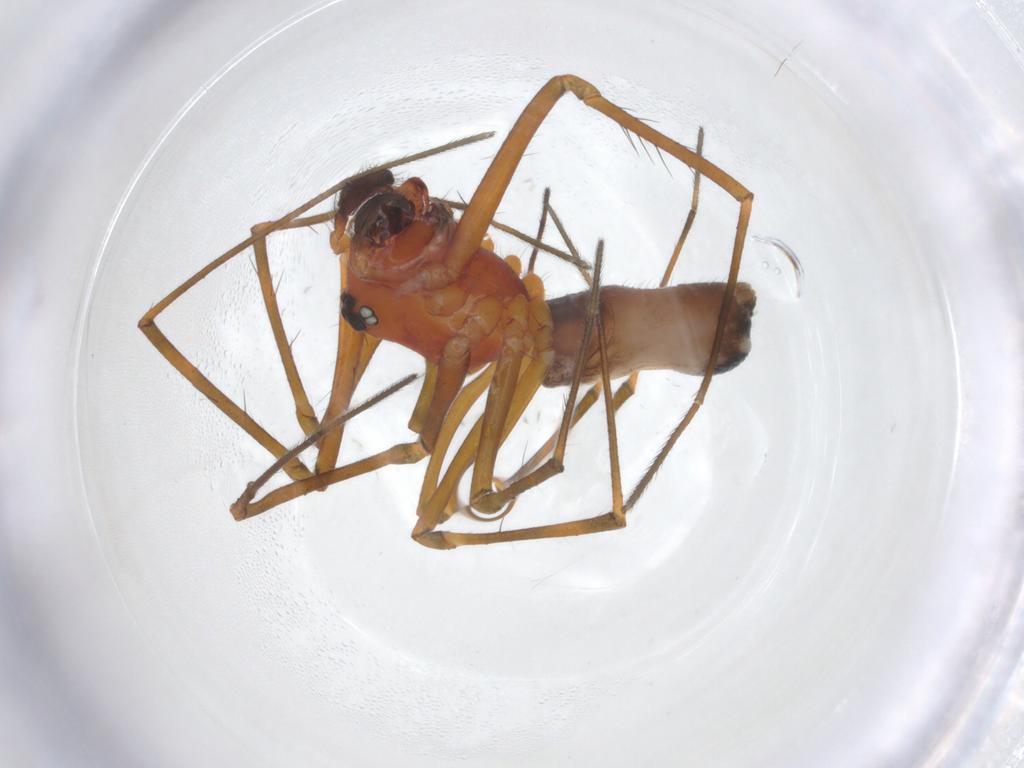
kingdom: Animalia
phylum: Arthropoda
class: Arachnida
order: Araneae
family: Linyphiidae
